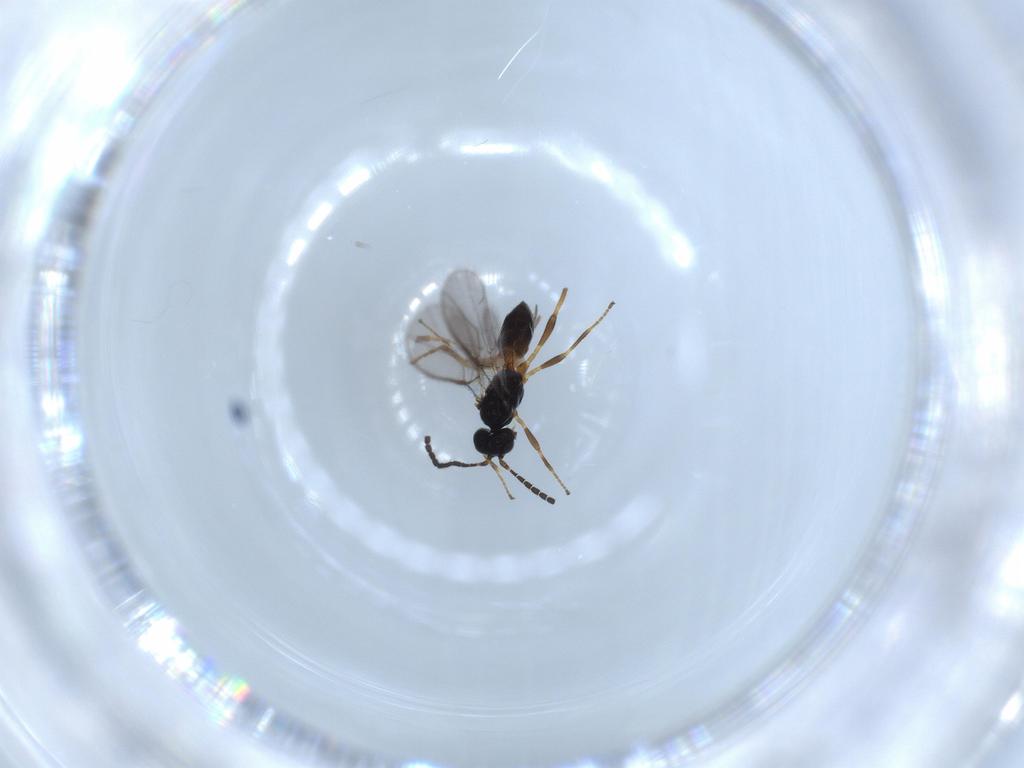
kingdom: Animalia
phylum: Arthropoda
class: Insecta
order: Hymenoptera
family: Braconidae
